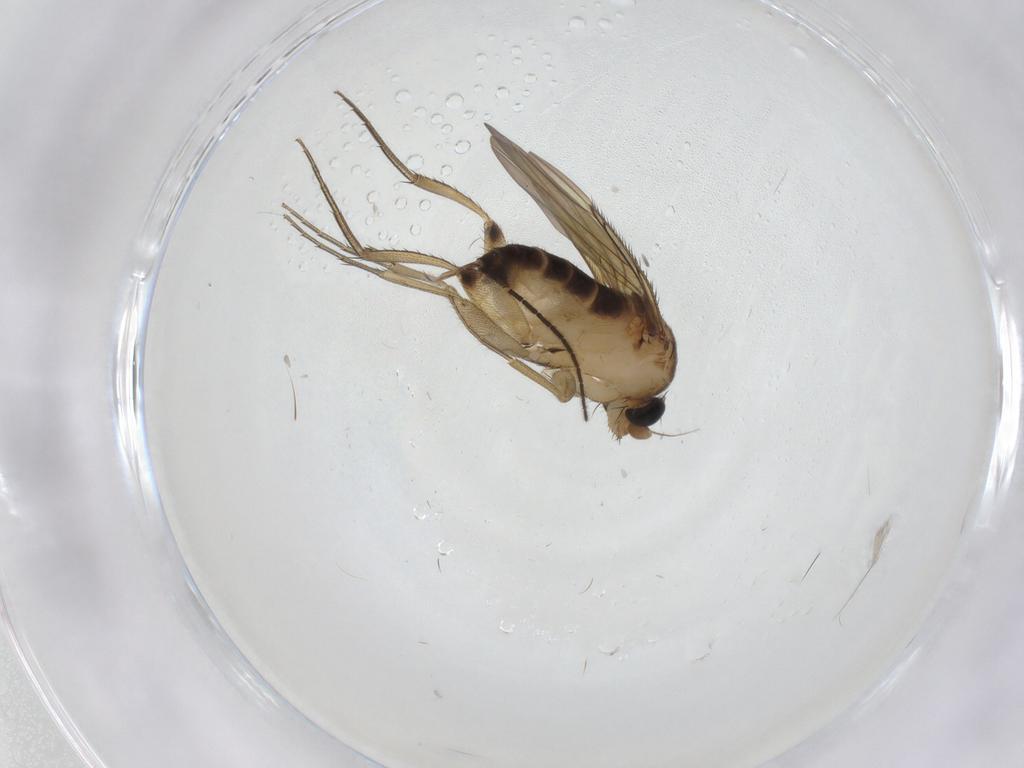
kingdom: Animalia
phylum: Arthropoda
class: Insecta
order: Diptera
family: Phoridae
